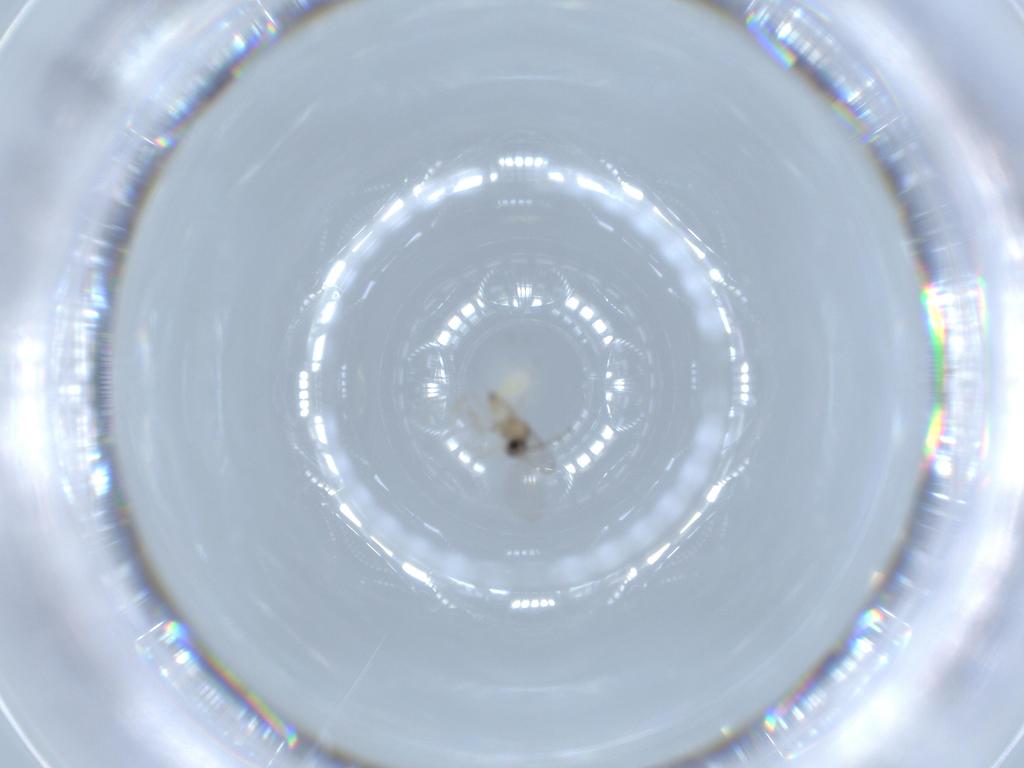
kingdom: Animalia
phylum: Arthropoda
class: Insecta
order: Diptera
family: Cecidomyiidae
